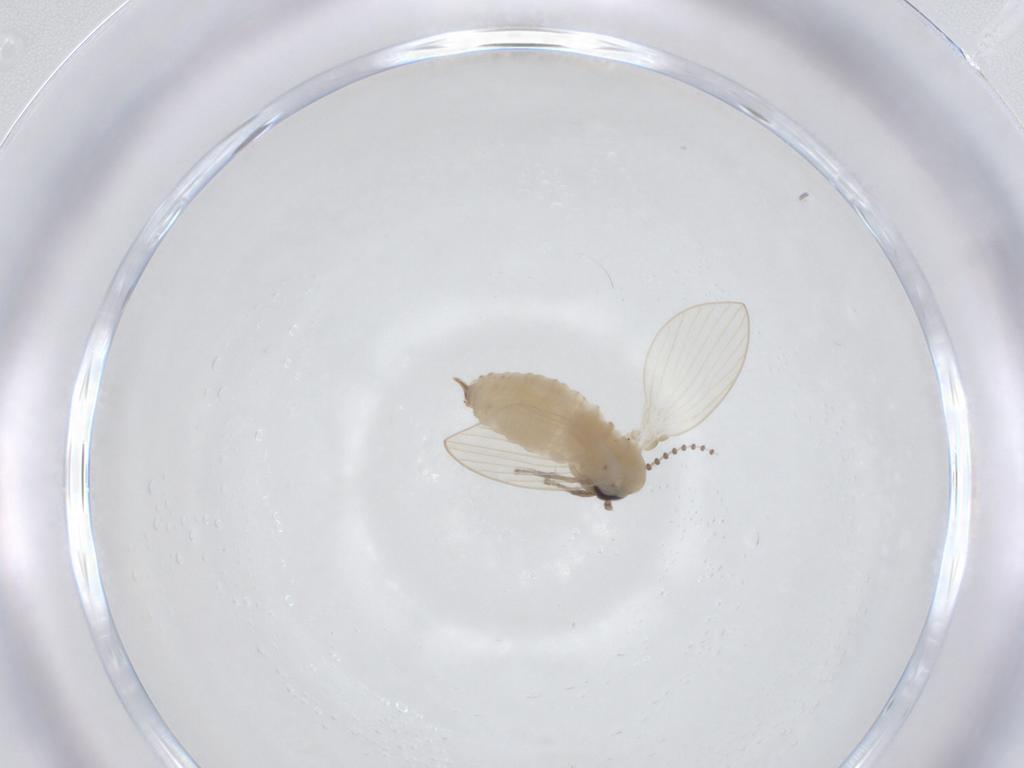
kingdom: Animalia
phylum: Arthropoda
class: Insecta
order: Diptera
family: Psychodidae
